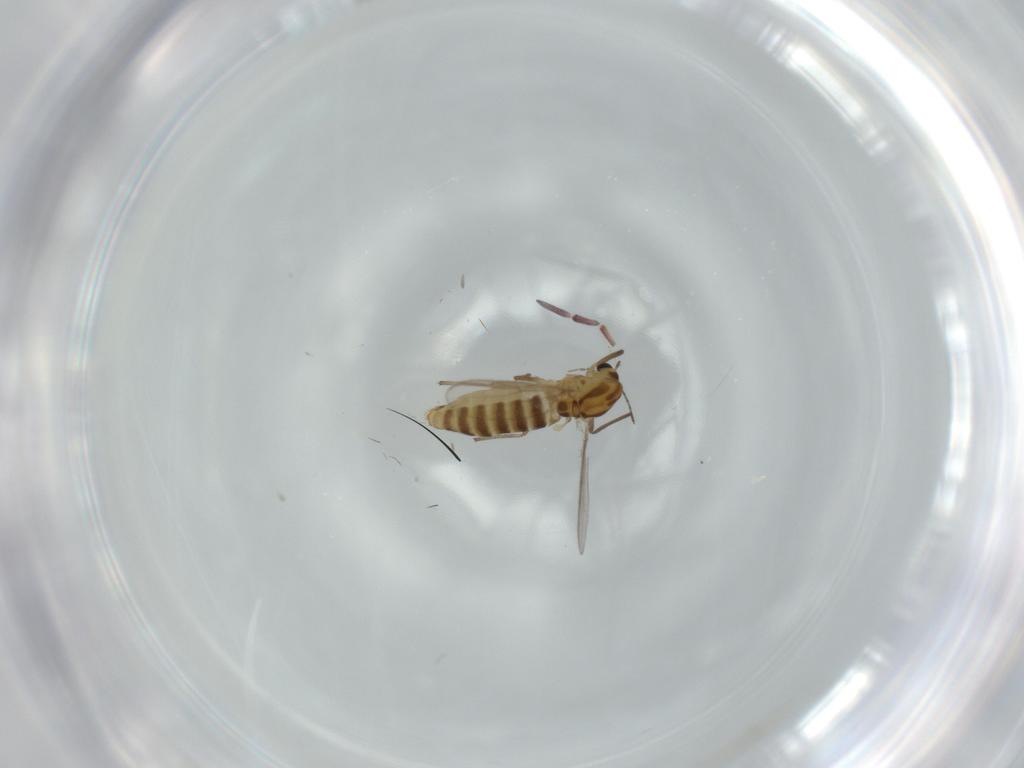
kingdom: Animalia
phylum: Arthropoda
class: Insecta
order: Diptera
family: Chironomidae
